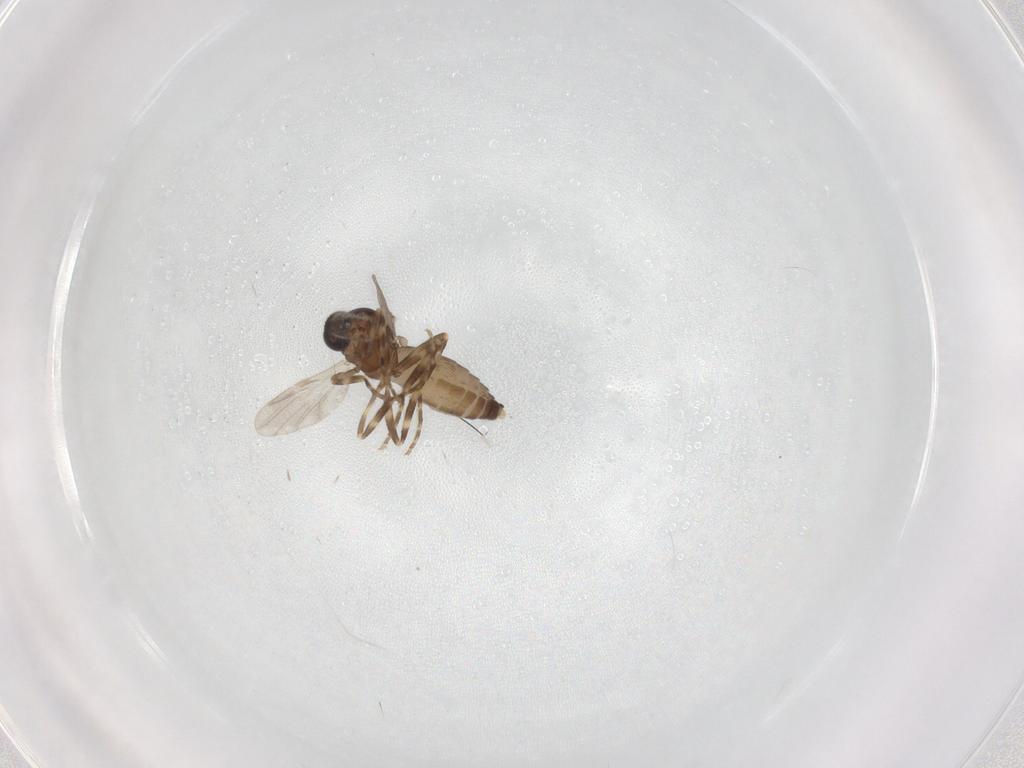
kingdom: Animalia
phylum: Arthropoda
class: Insecta
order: Diptera
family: Ceratopogonidae
